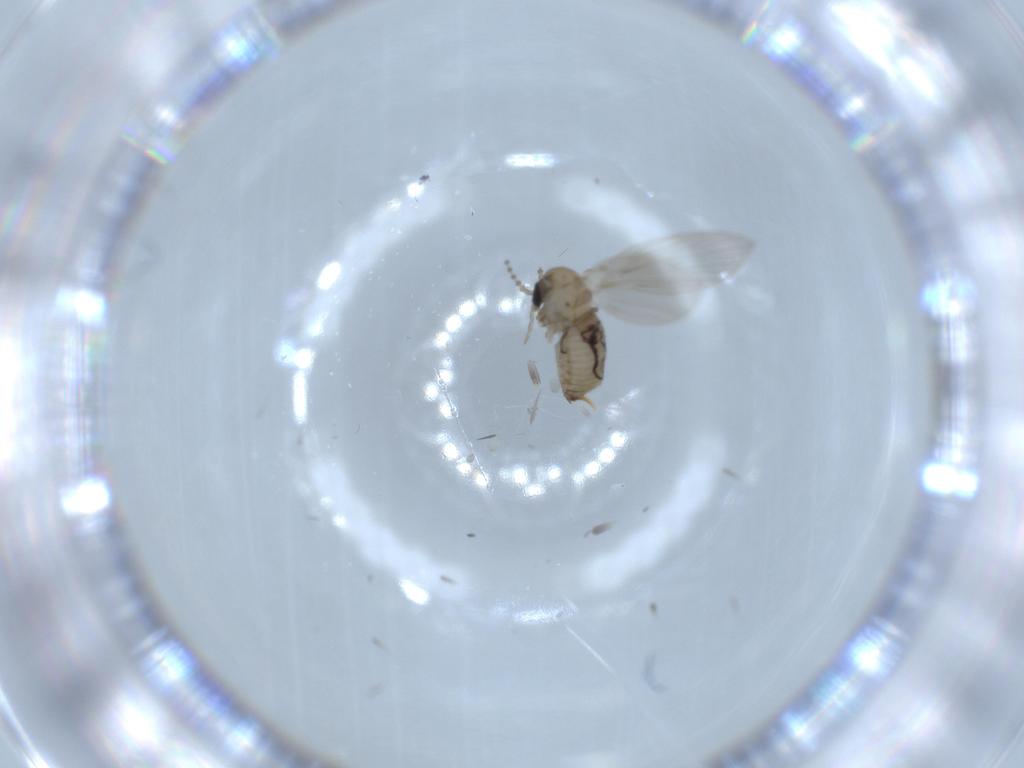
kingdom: Animalia
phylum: Arthropoda
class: Insecta
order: Diptera
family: Psychodidae
